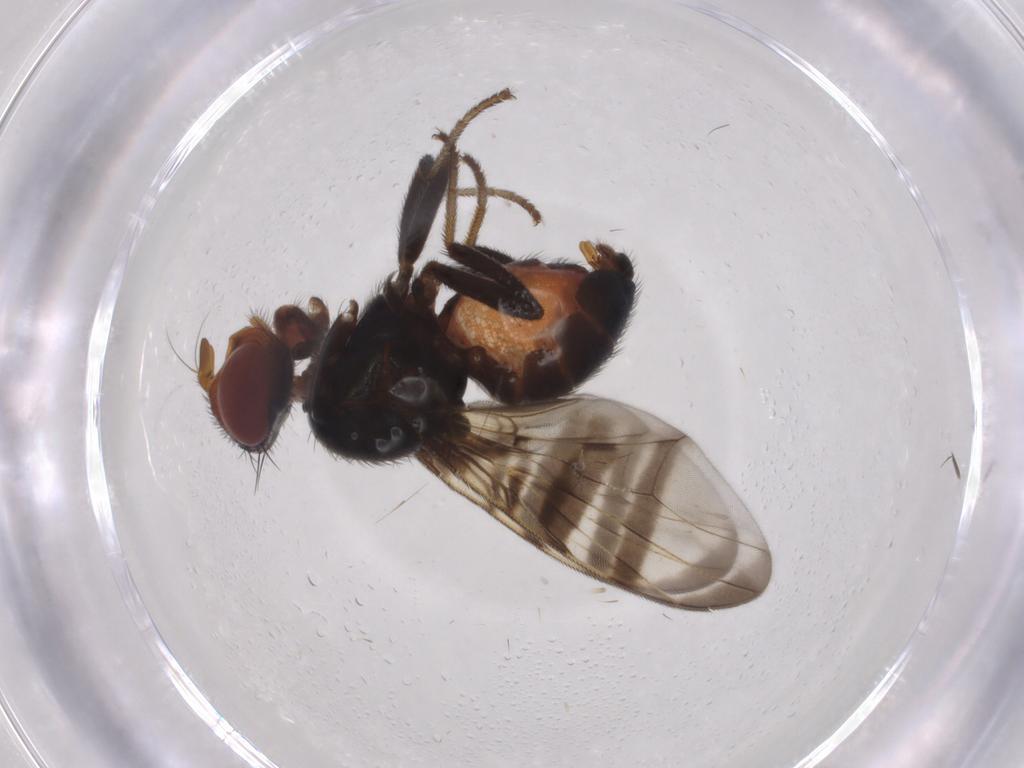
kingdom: Animalia
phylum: Arthropoda
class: Insecta
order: Diptera
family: Platystomatidae
